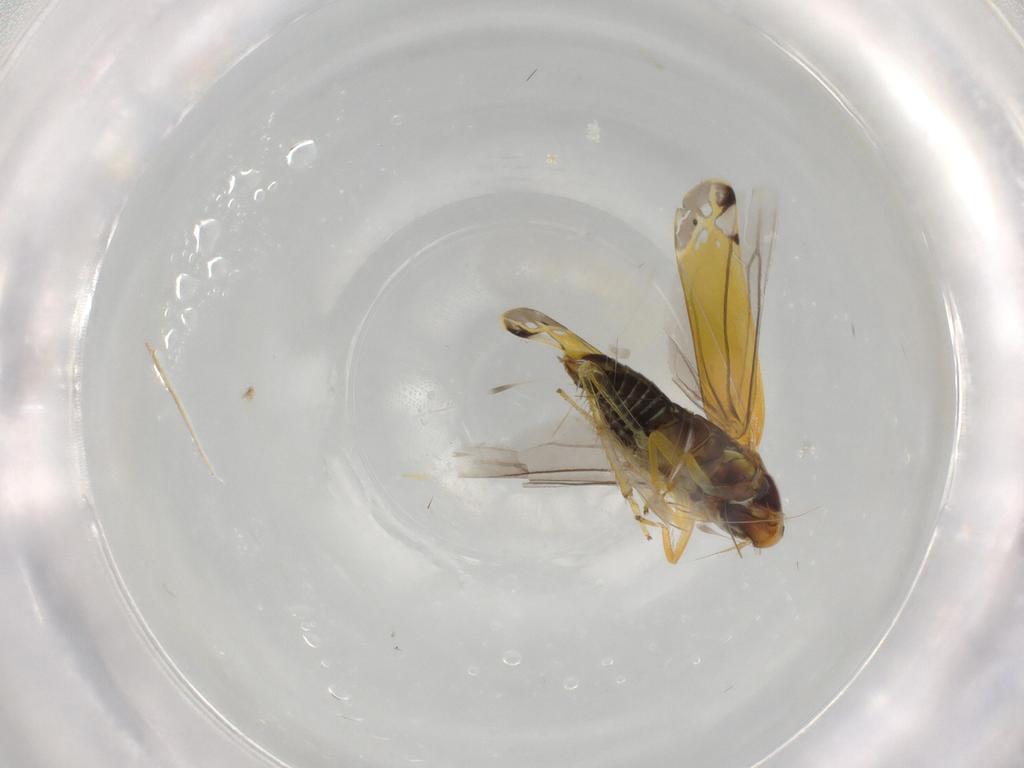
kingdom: Animalia
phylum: Arthropoda
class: Insecta
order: Hemiptera
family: Cicadellidae
